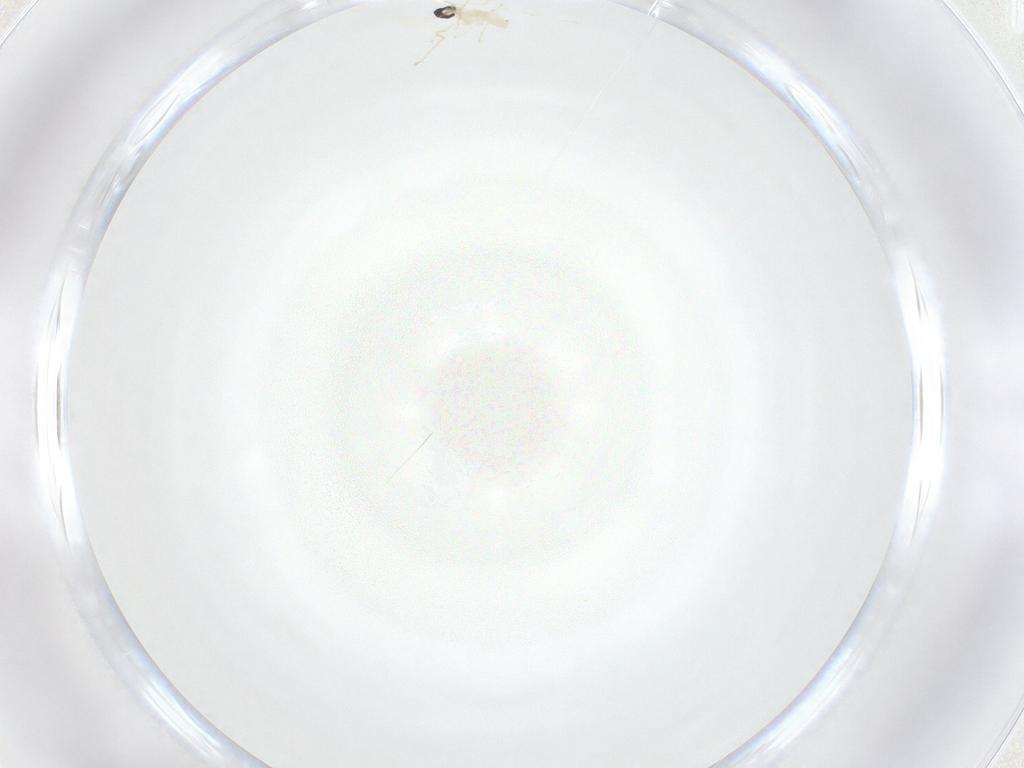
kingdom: Animalia
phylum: Arthropoda
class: Insecta
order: Diptera
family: Cecidomyiidae
